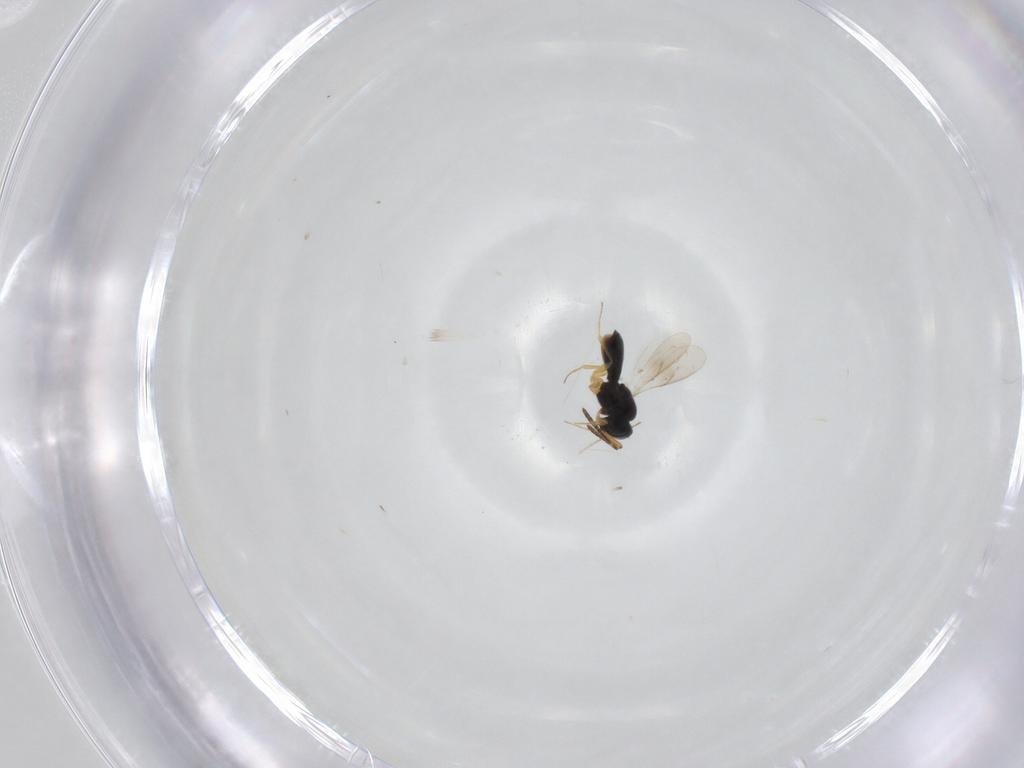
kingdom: Animalia
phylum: Arthropoda
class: Insecta
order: Hymenoptera
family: Scelionidae
